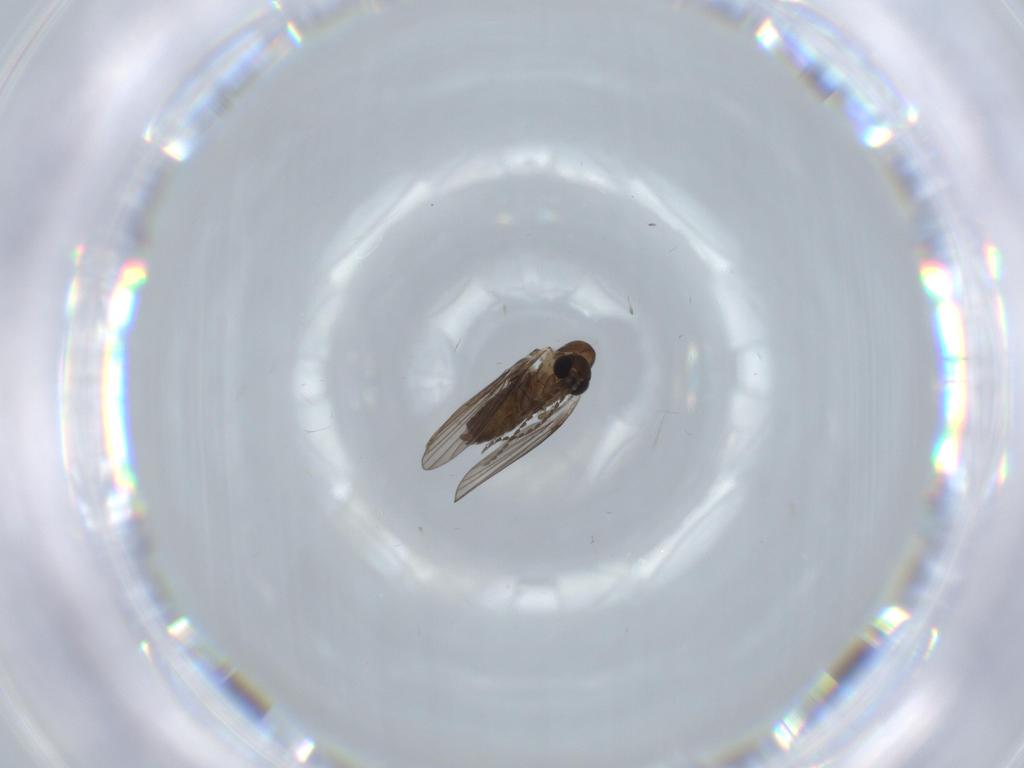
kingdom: Animalia
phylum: Arthropoda
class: Insecta
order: Diptera
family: Psychodidae
